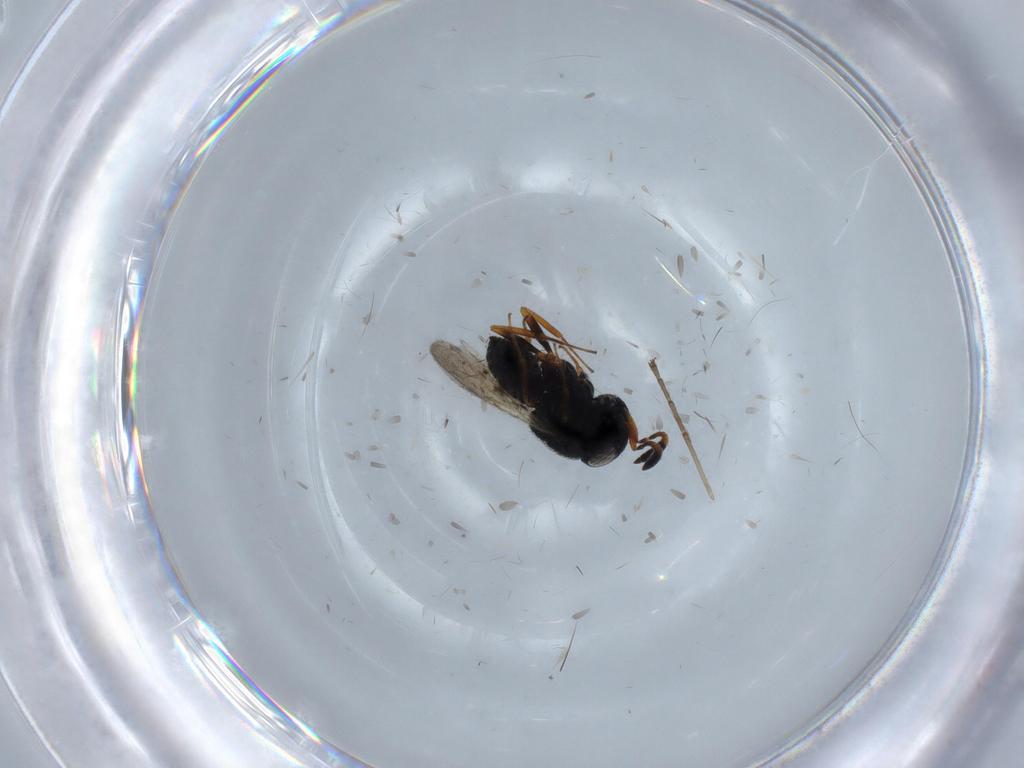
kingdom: Animalia
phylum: Arthropoda
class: Insecta
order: Hymenoptera
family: Scelionidae
